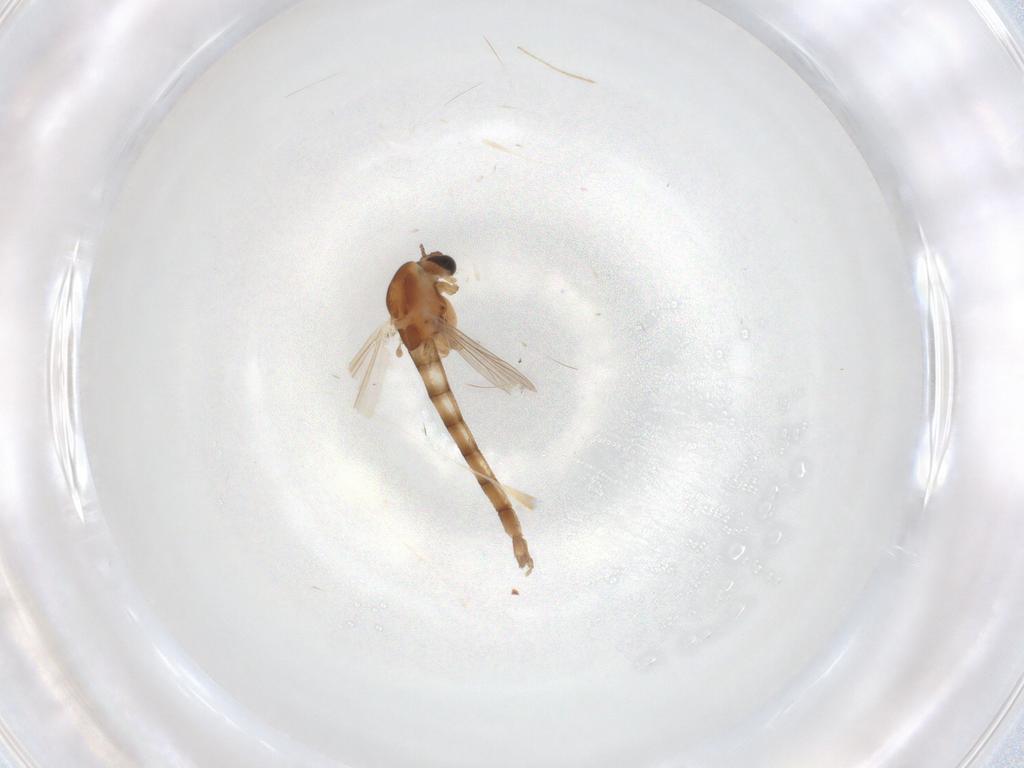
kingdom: Animalia
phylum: Arthropoda
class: Insecta
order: Diptera
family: Chironomidae
